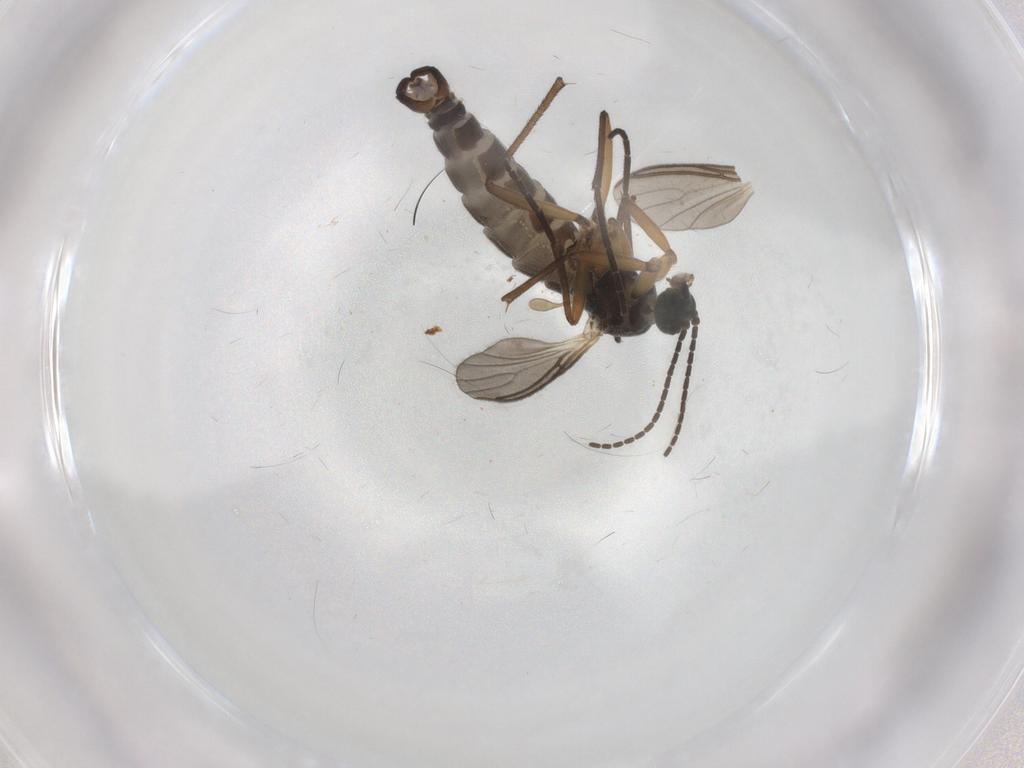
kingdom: Animalia
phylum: Arthropoda
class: Insecta
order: Diptera
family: Sciaridae
